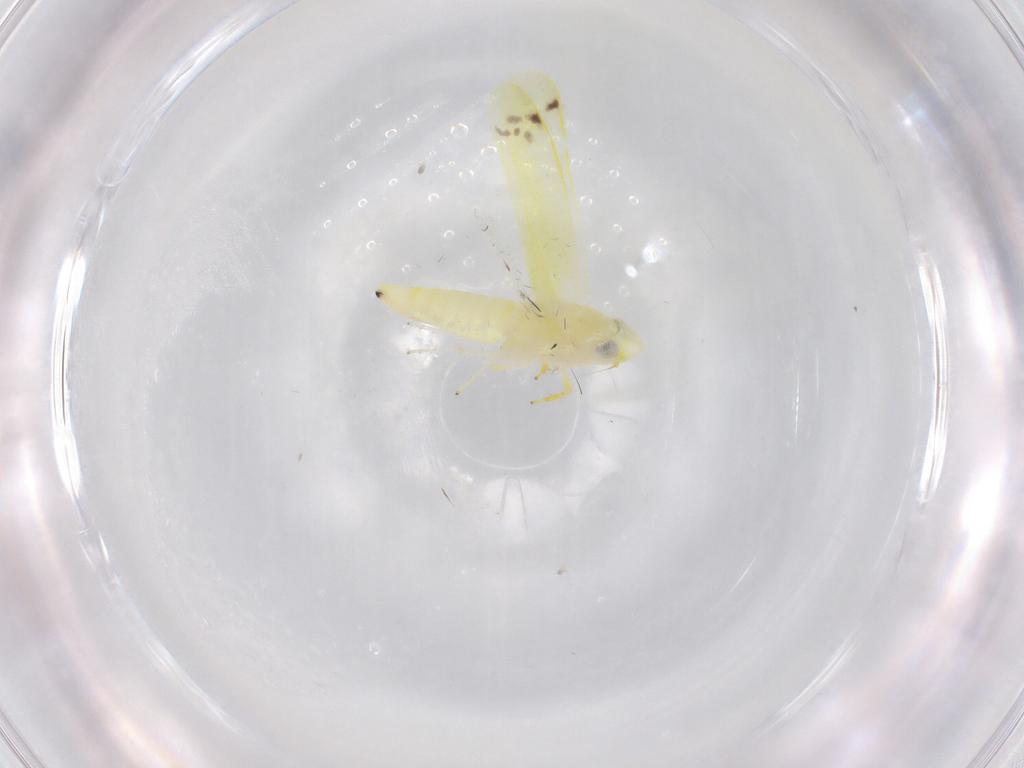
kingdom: Animalia
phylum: Arthropoda
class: Insecta
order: Hemiptera
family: Cicadellidae
